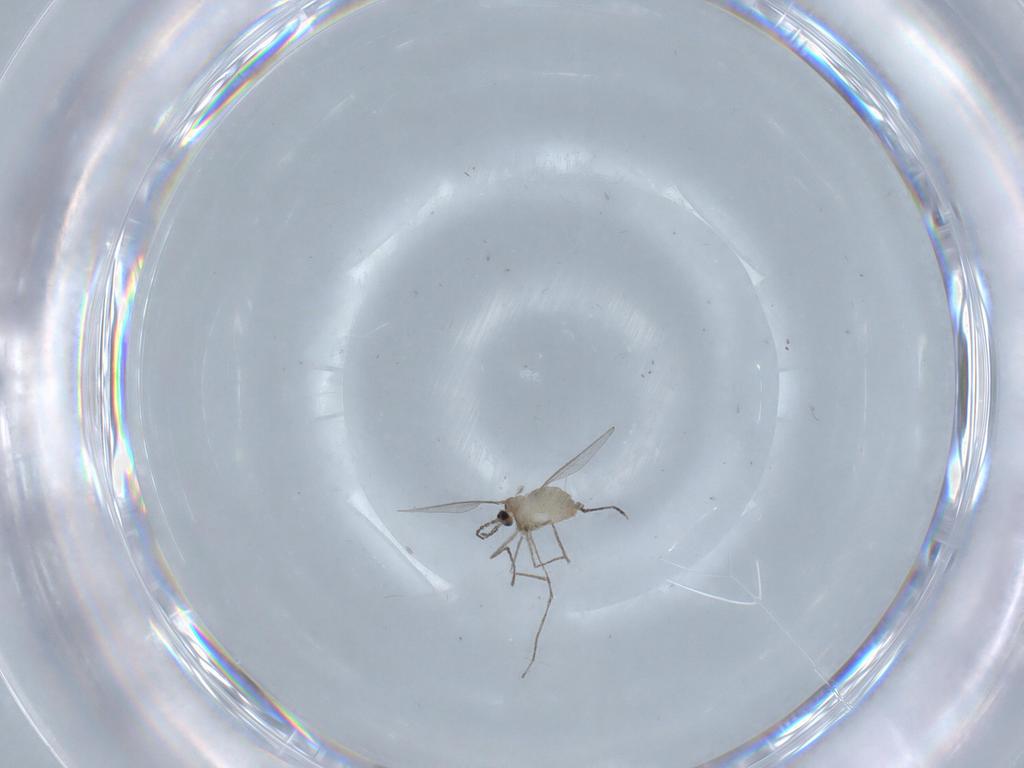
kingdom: Animalia
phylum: Arthropoda
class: Insecta
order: Diptera
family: Cecidomyiidae
